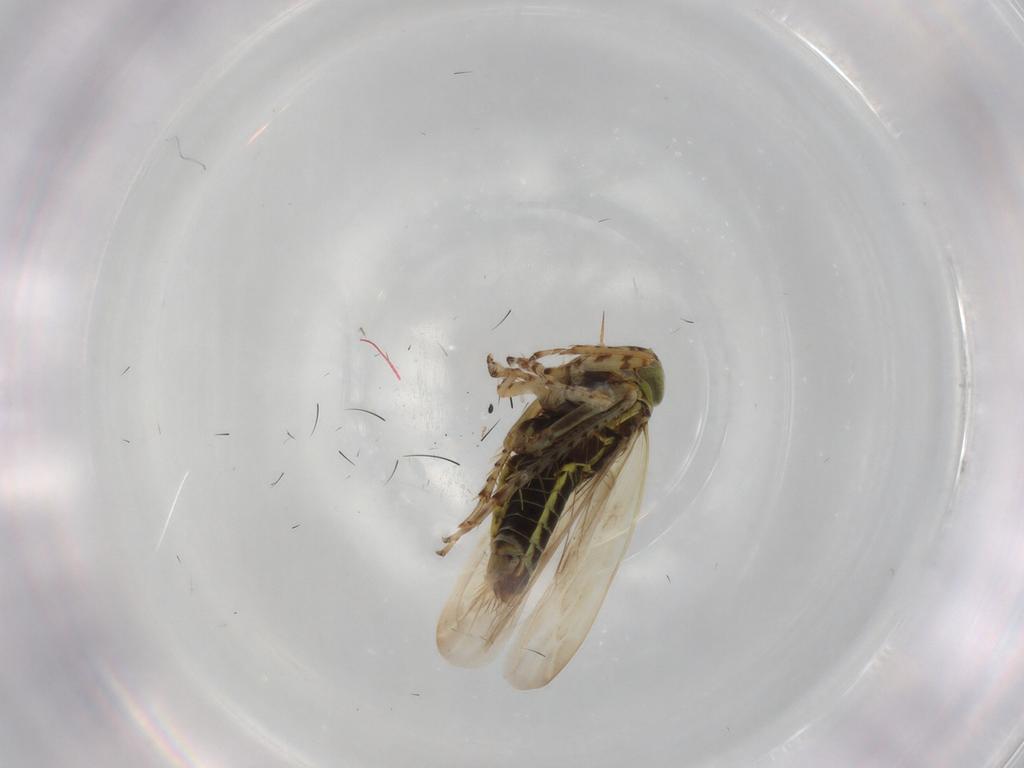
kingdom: Animalia
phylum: Arthropoda
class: Insecta
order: Hemiptera
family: Cicadellidae
